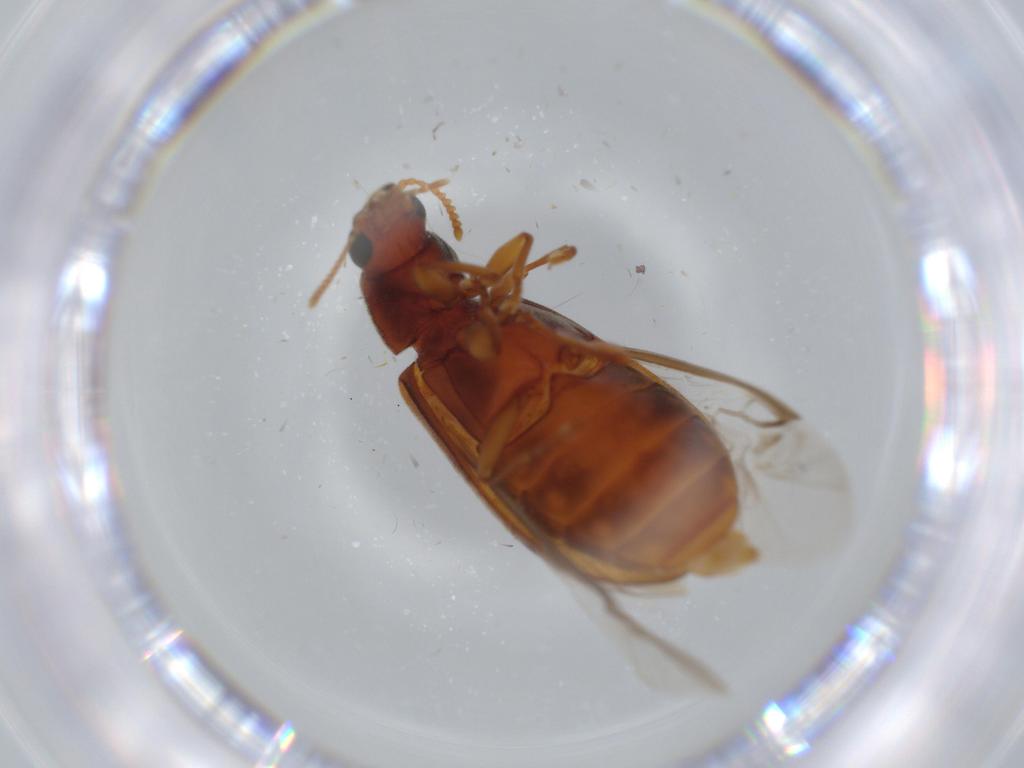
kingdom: Animalia
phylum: Arthropoda
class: Insecta
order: Coleoptera
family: Mycteridae
